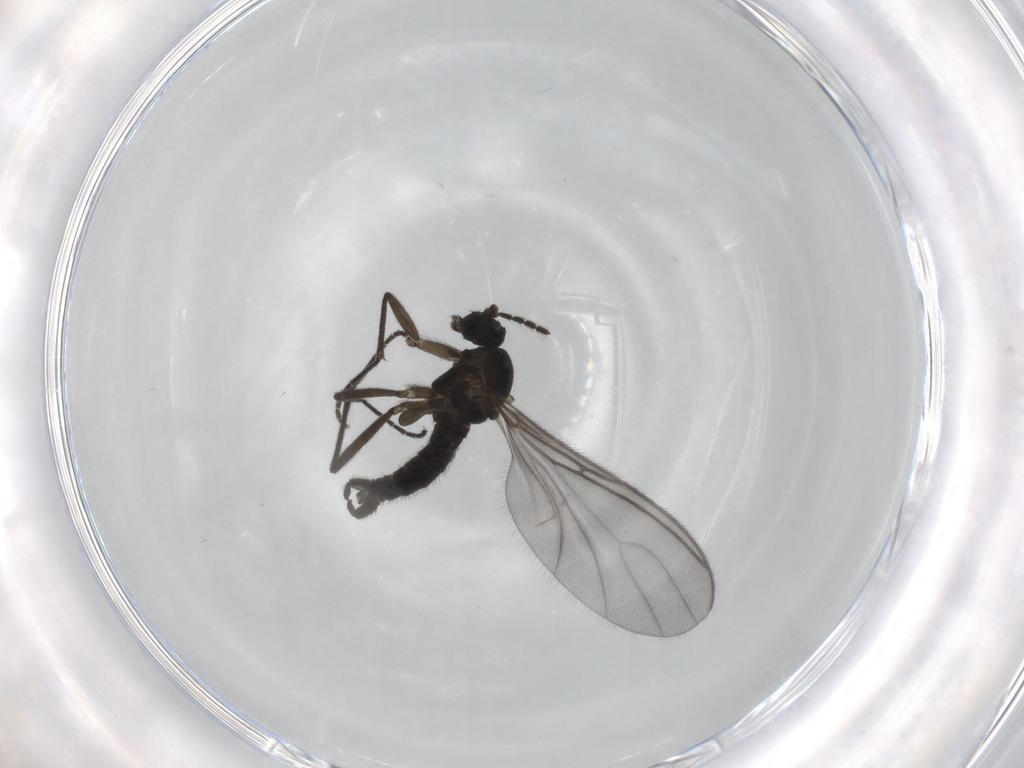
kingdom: Animalia
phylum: Arthropoda
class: Insecta
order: Diptera
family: Sciaridae
